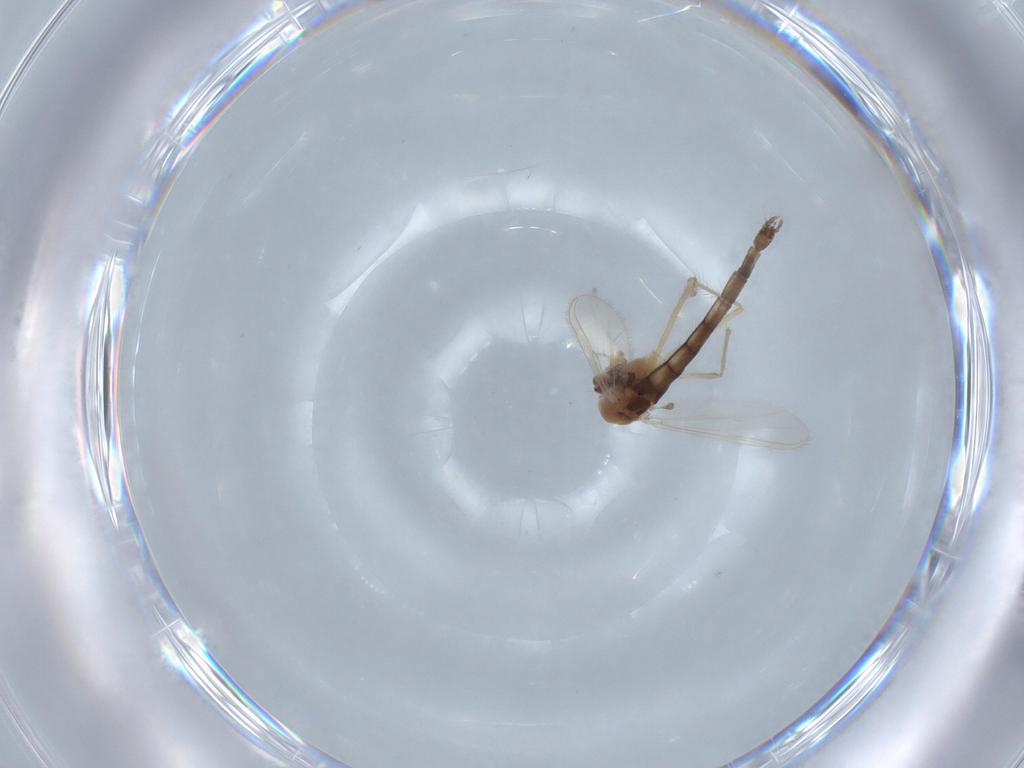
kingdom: Animalia
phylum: Arthropoda
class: Insecta
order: Diptera
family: Chironomidae
